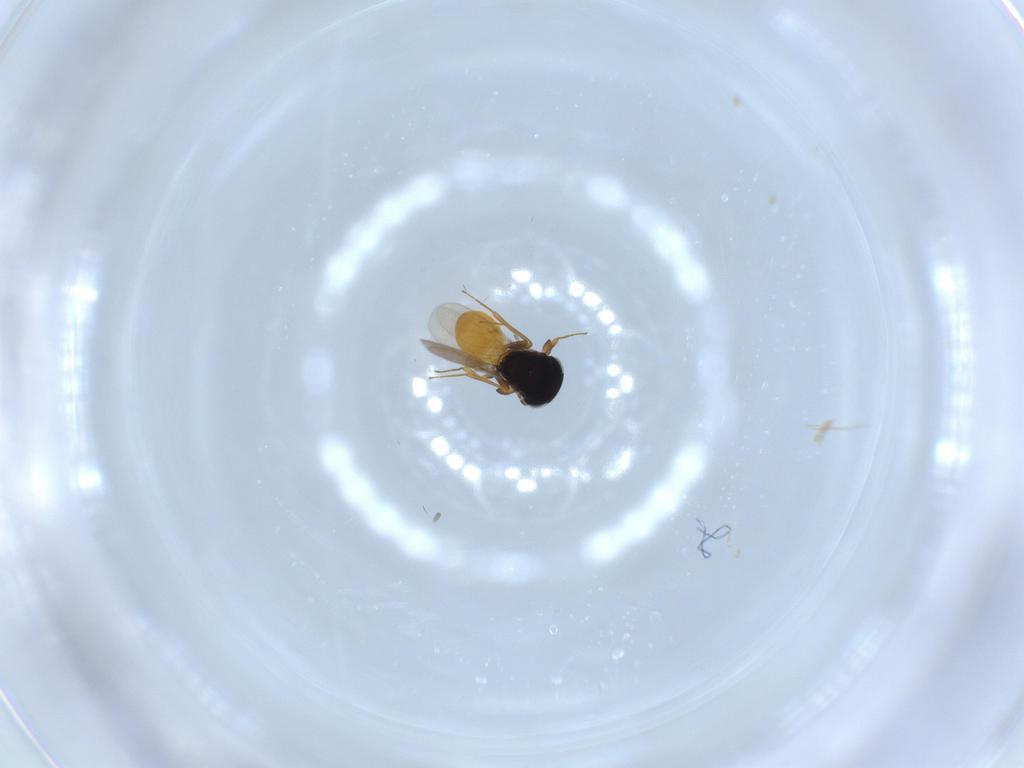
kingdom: Animalia
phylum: Arthropoda
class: Insecta
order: Hymenoptera
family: Scelionidae
